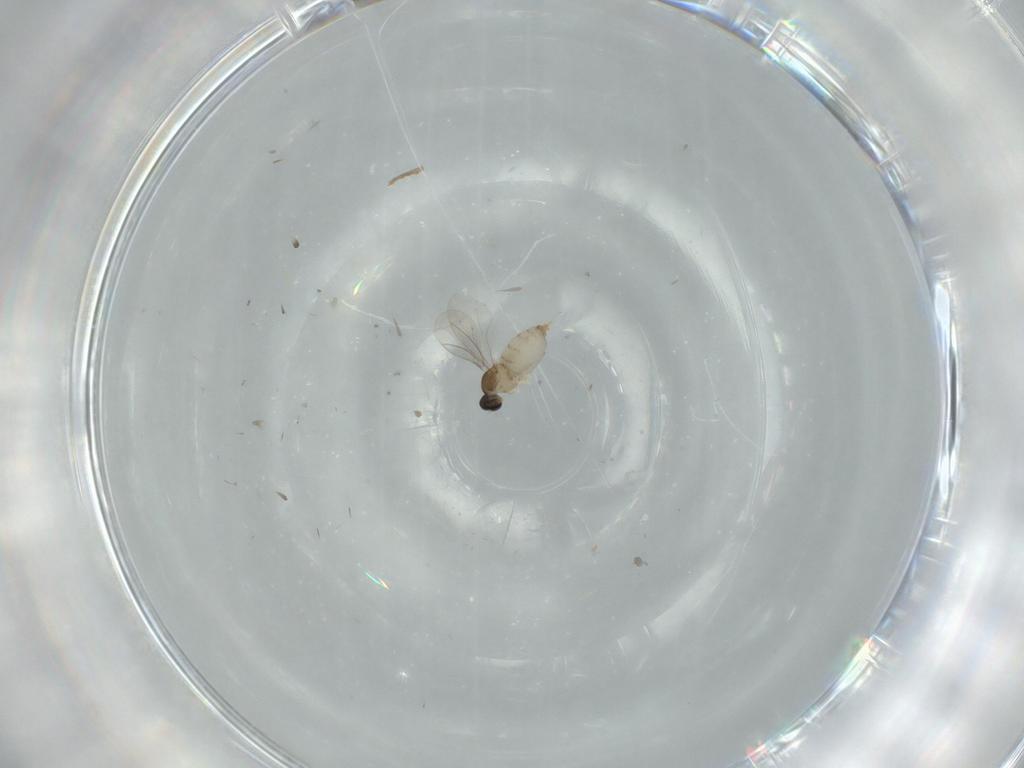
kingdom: Animalia
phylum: Arthropoda
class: Insecta
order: Diptera
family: Cecidomyiidae
